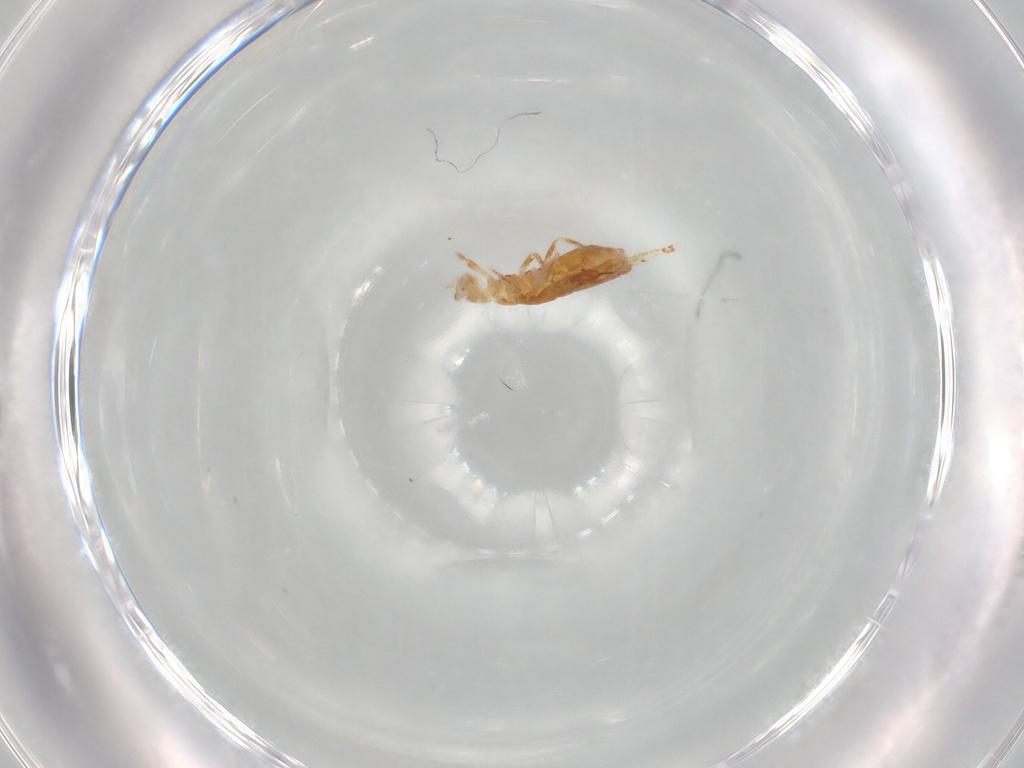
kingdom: Animalia
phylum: Arthropoda
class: Collembola
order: Entomobryomorpha
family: Entomobryidae
